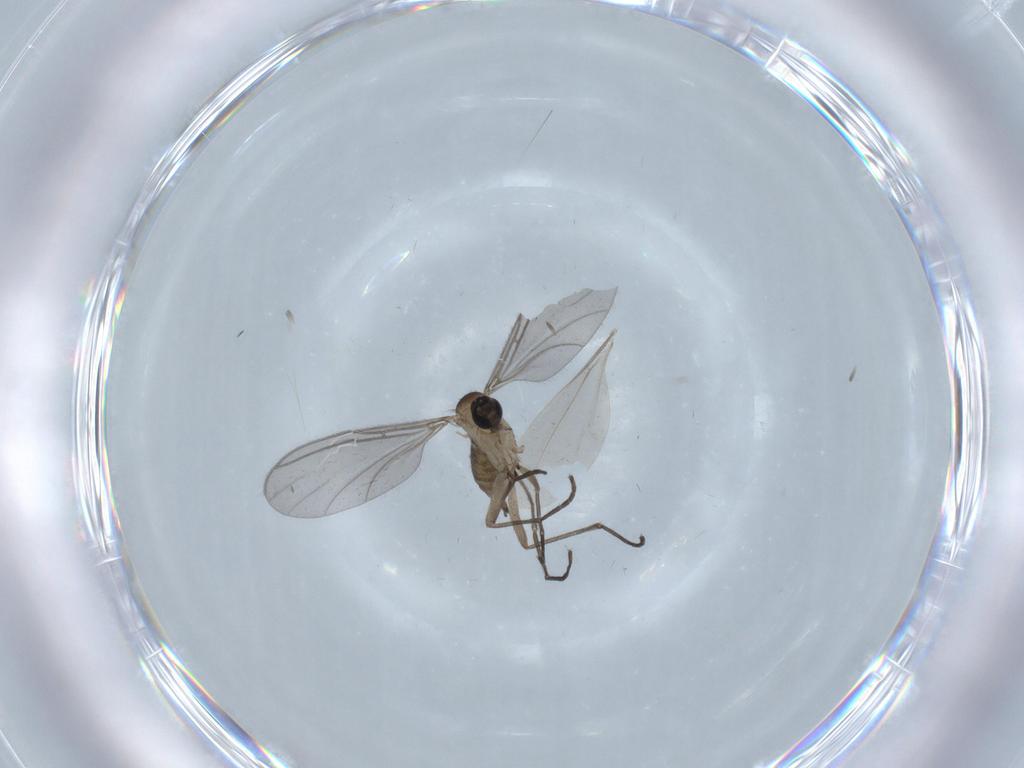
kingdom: Animalia
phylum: Arthropoda
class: Insecta
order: Diptera
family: Sciaridae
